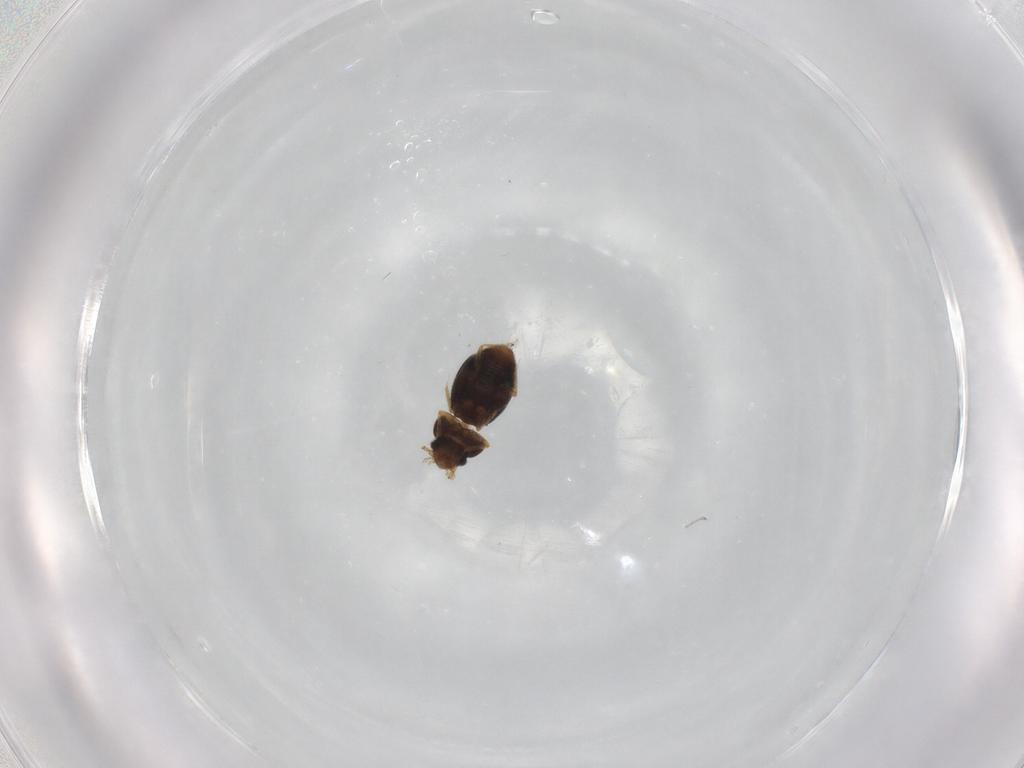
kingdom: Animalia
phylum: Arthropoda
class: Insecta
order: Coleoptera
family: Ptiliidae
